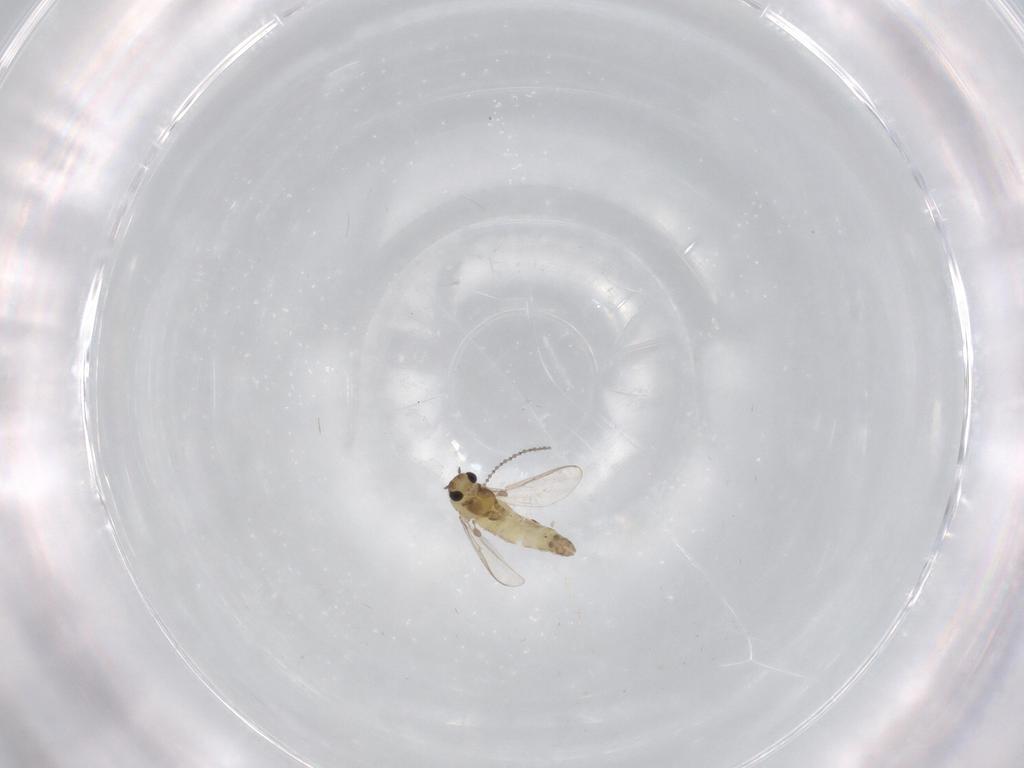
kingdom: Animalia
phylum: Arthropoda
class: Insecta
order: Diptera
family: Chironomidae
